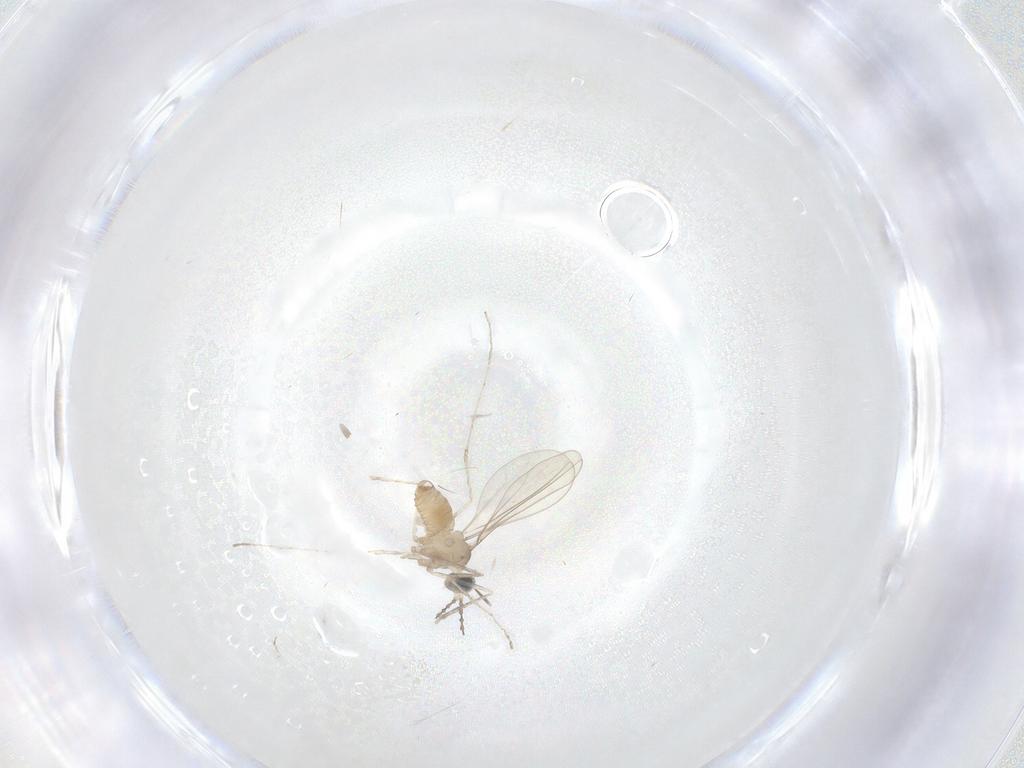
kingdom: Animalia
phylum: Arthropoda
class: Insecta
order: Diptera
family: Cecidomyiidae
